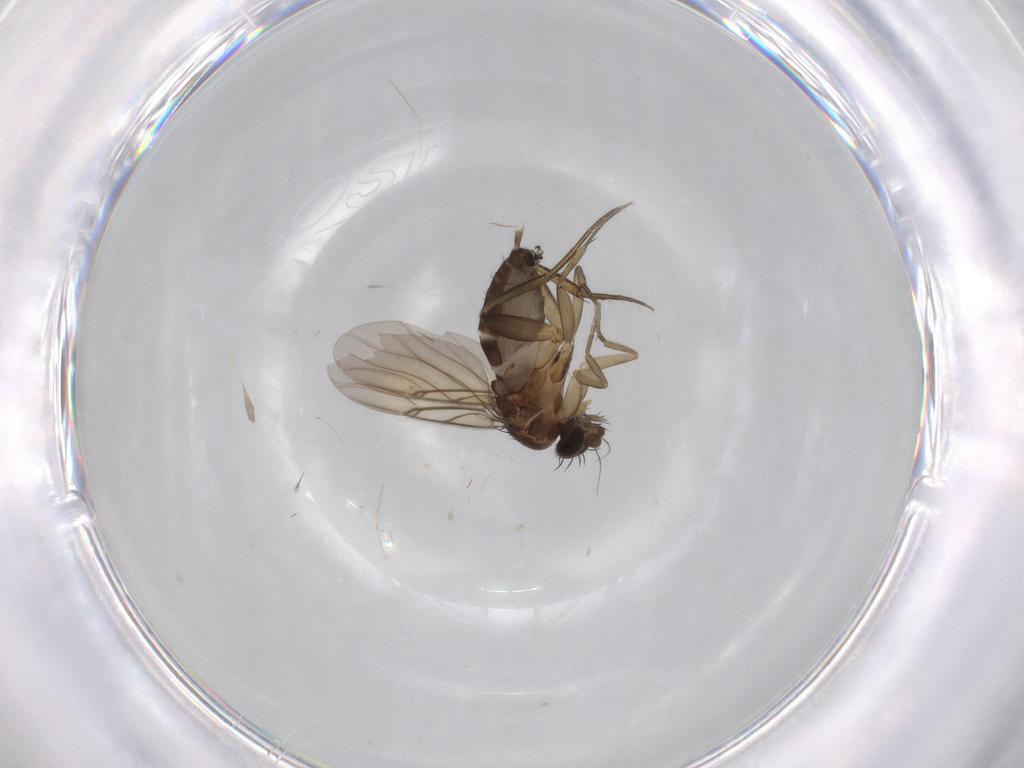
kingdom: Animalia
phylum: Arthropoda
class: Insecta
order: Diptera
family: Phoridae
